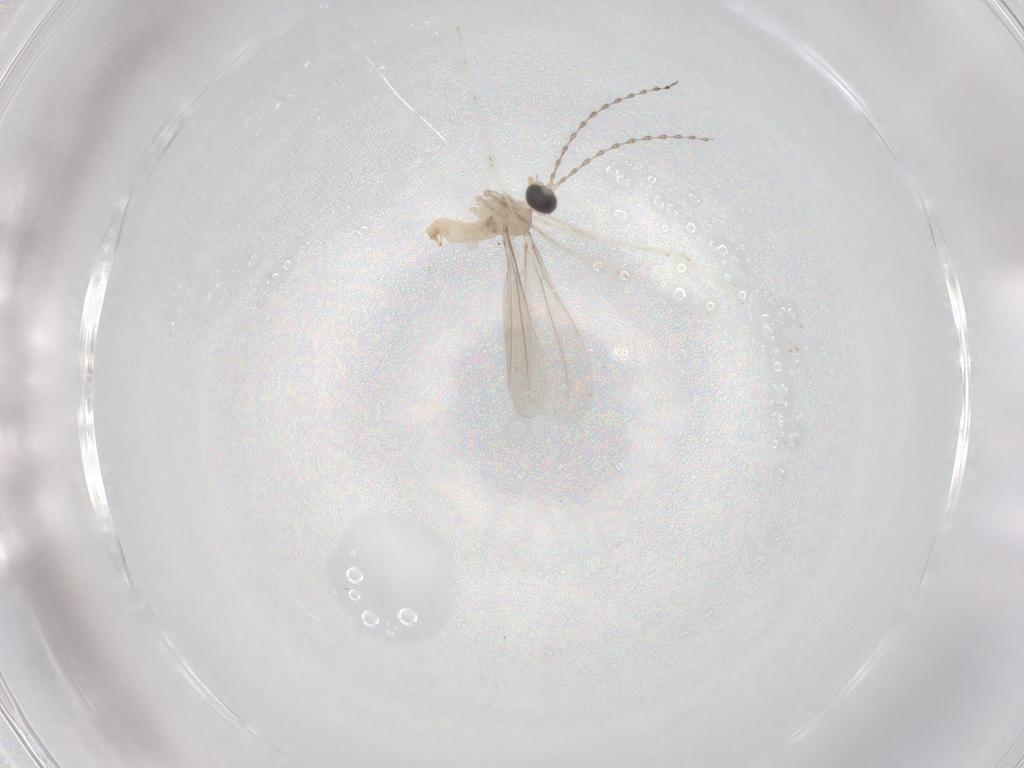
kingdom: Animalia
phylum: Arthropoda
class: Insecta
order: Diptera
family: Cecidomyiidae
